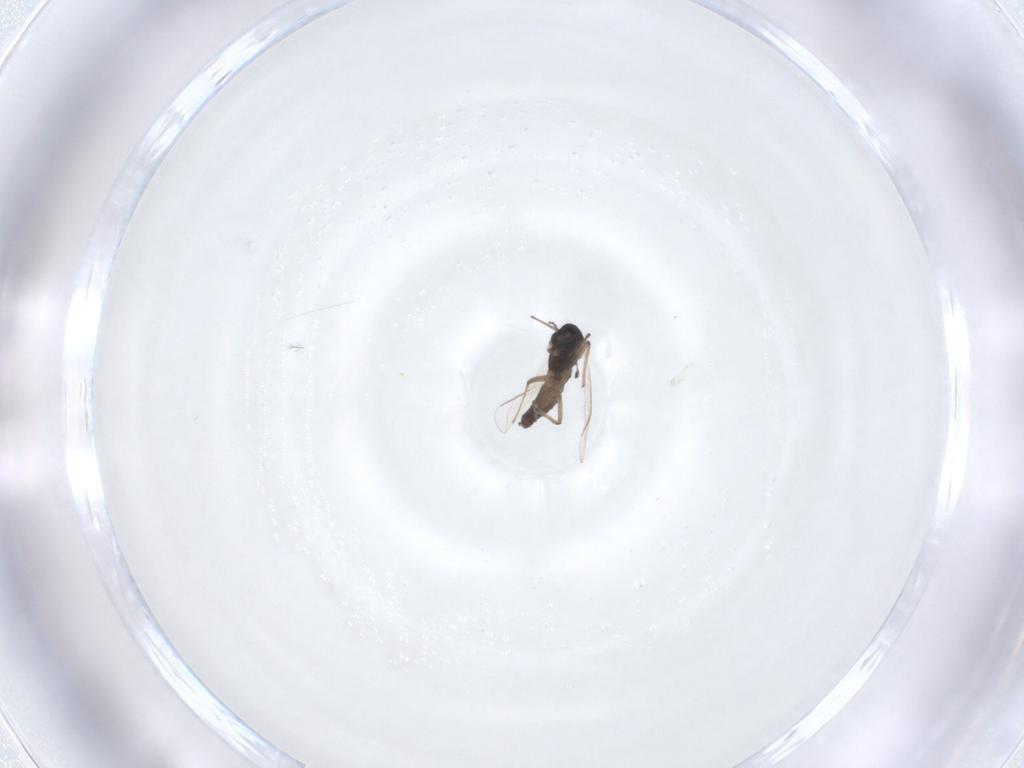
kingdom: Animalia
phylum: Arthropoda
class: Insecta
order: Diptera
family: Chironomidae
